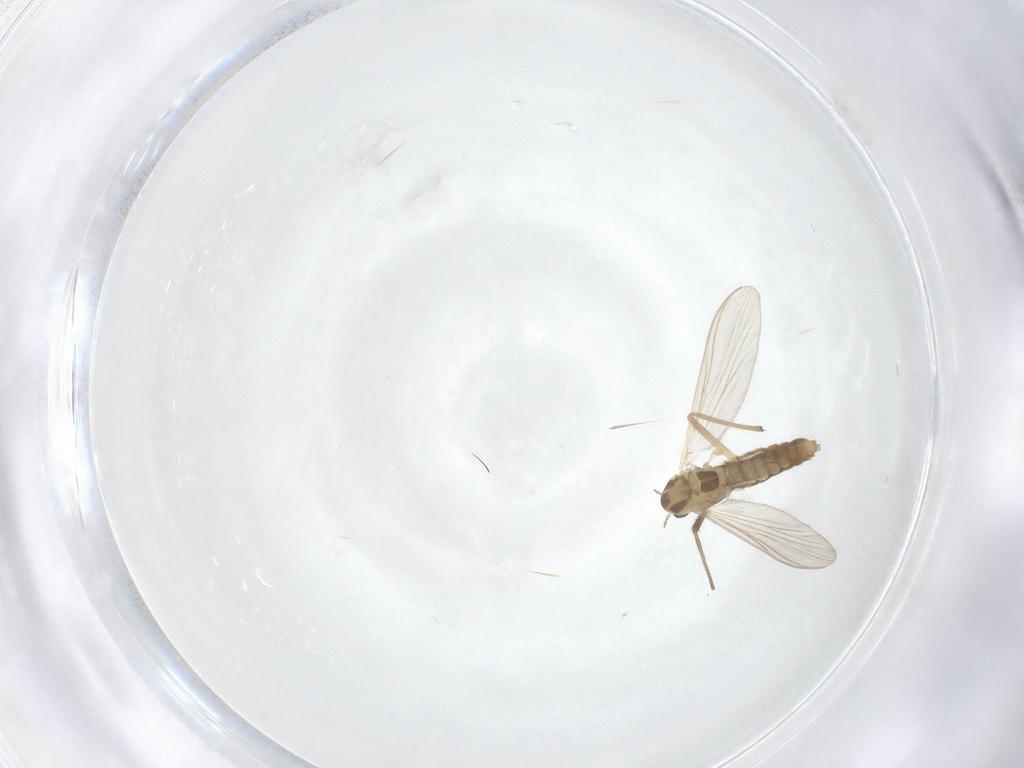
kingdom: Animalia
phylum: Arthropoda
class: Insecta
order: Diptera
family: Chironomidae
